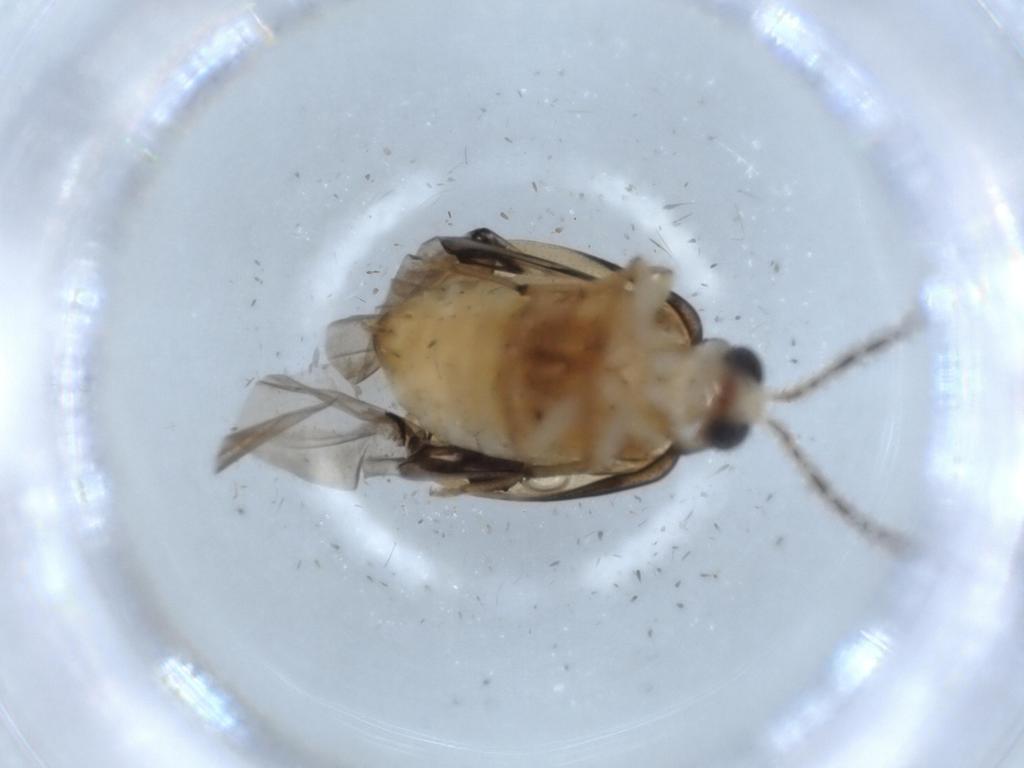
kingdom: Animalia
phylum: Arthropoda
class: Insecta
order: Coleoptera
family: Chrysomelidae
